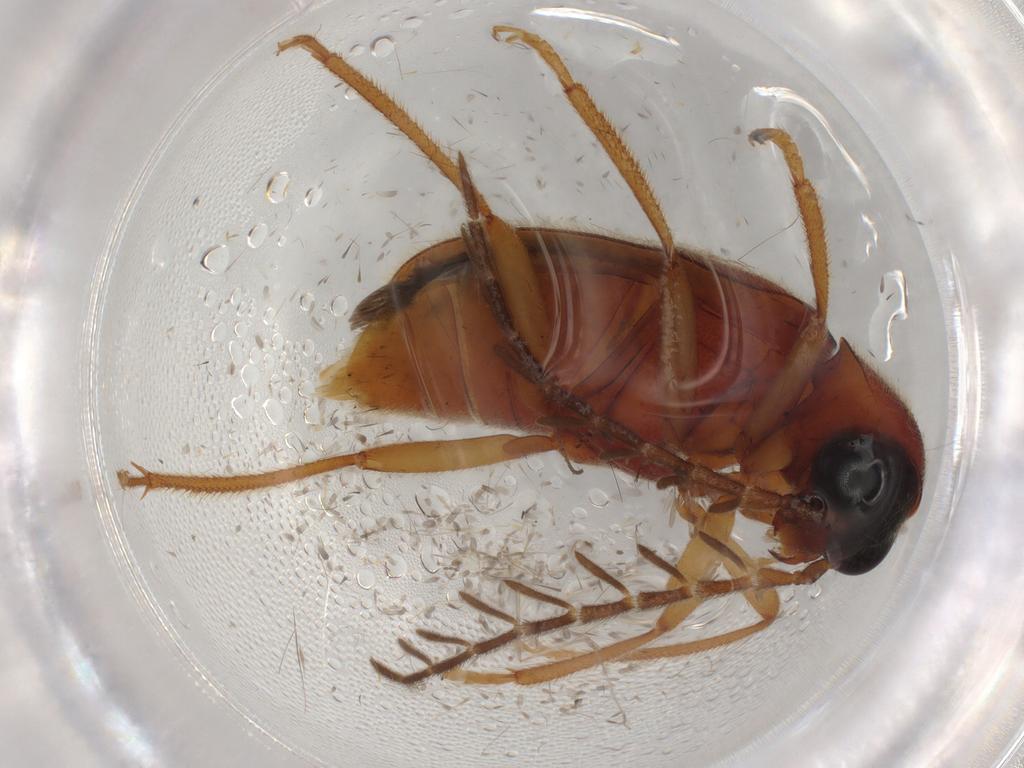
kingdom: Animalia
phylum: Arthropoda
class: Insecta
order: Coleoptera
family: Ptilodactylidae
